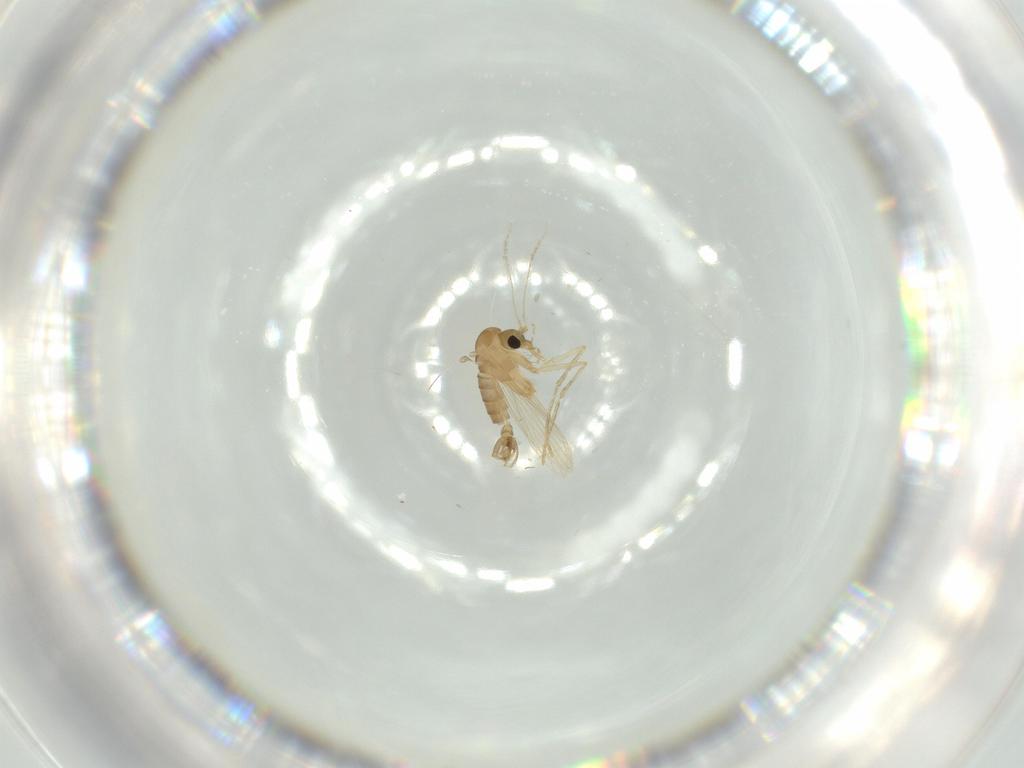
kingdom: Animalia
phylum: Arthropoda
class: Insecta
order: Diptera
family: Psychodidae
